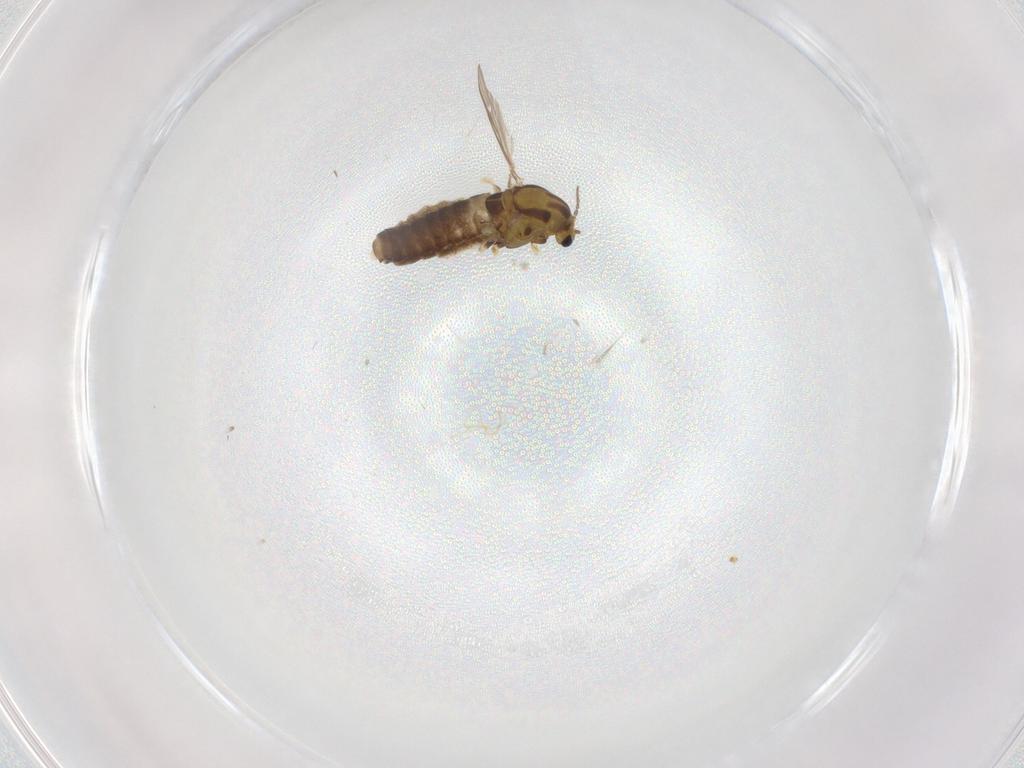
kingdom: Animalia
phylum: Arthropoda
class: Insecta
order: Diptera
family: Chironomidae
